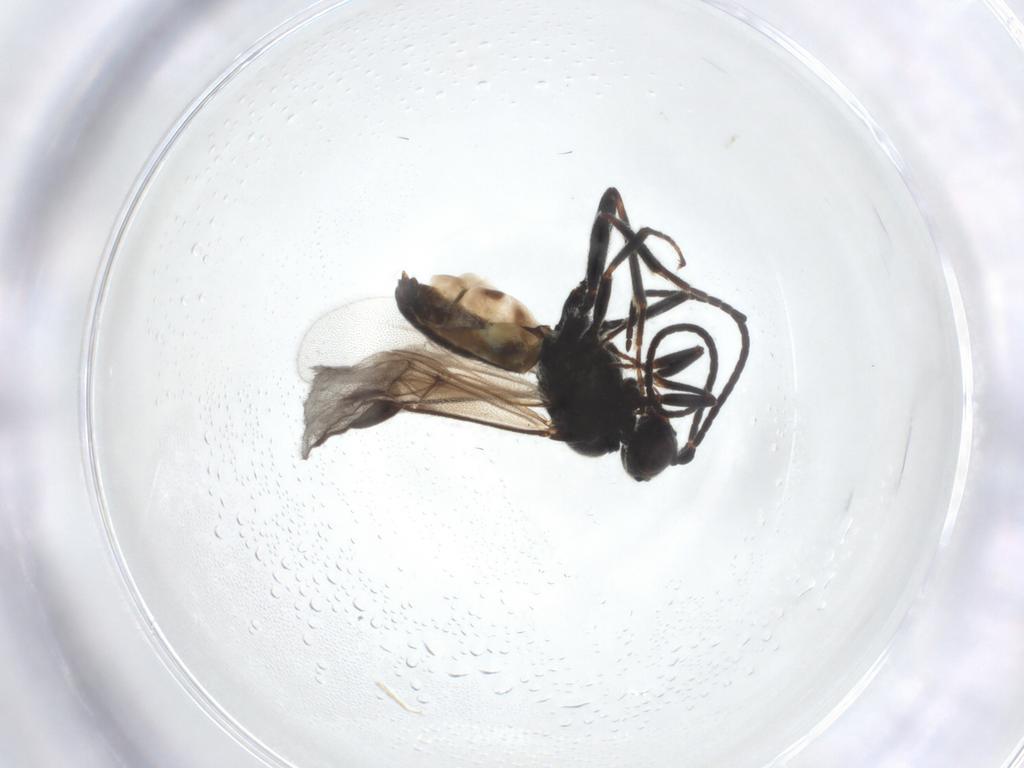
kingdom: Animalia
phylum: Arthropoda
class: Insecta
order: Hymenoptera
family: Braconidae
